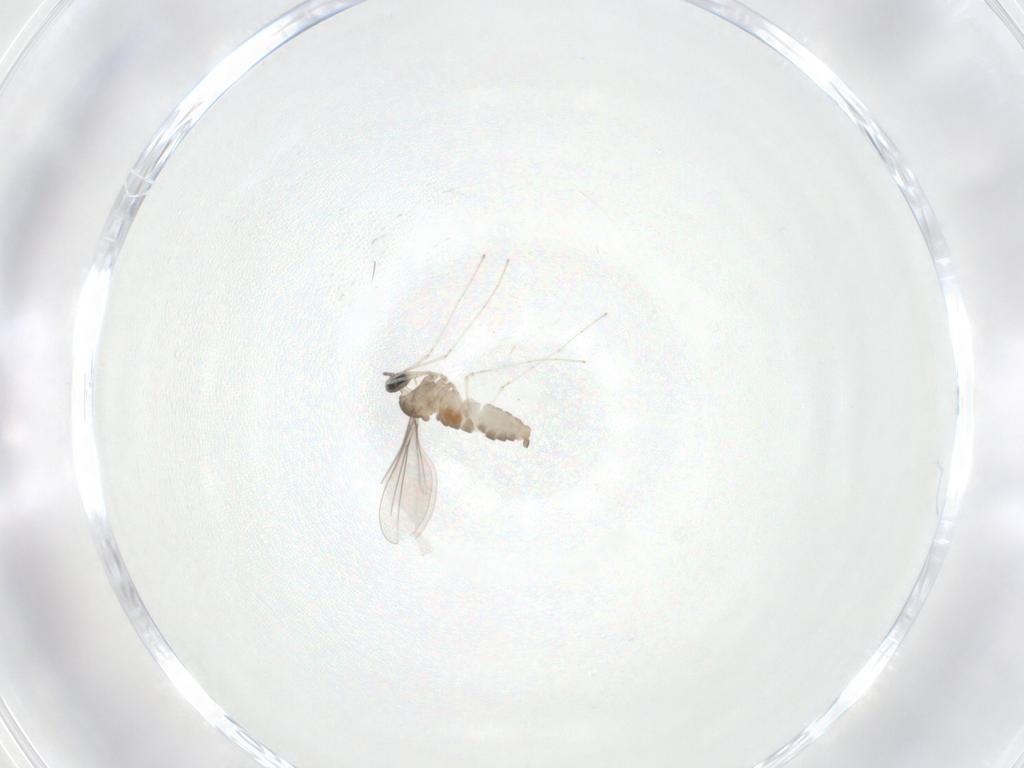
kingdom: Animalia
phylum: Arthropoda
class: Insecta
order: Diptera
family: Cecidomyiidae
